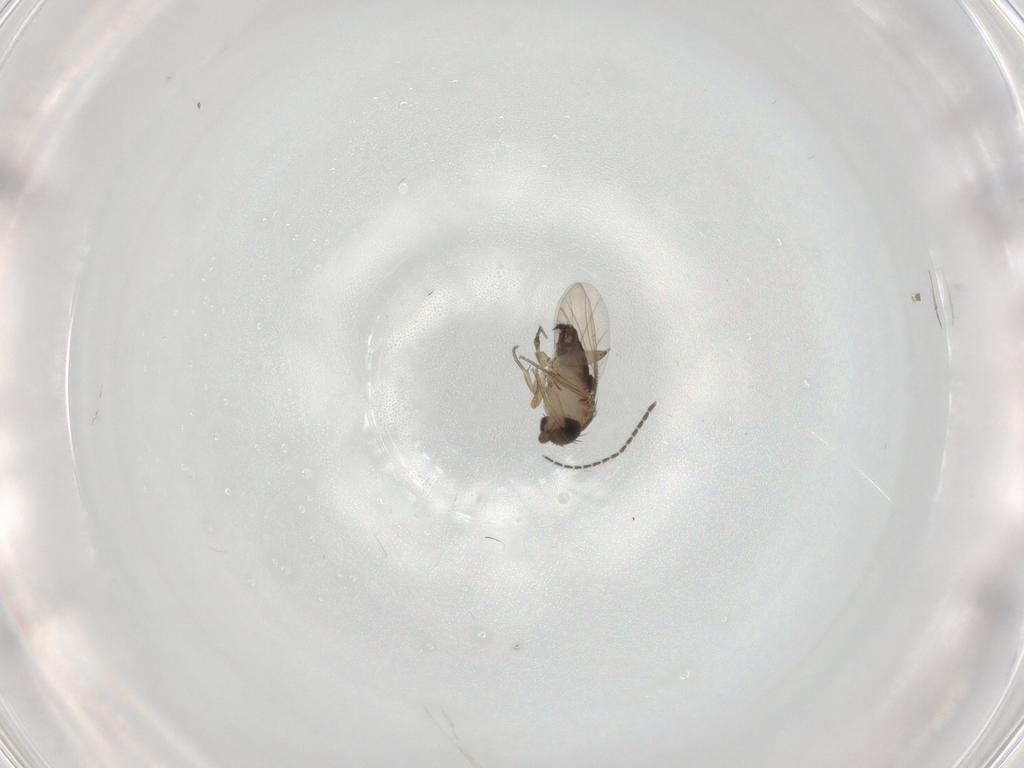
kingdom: Animalia
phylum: Arthropoda
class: Insecta
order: Diptera
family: Phoridae
